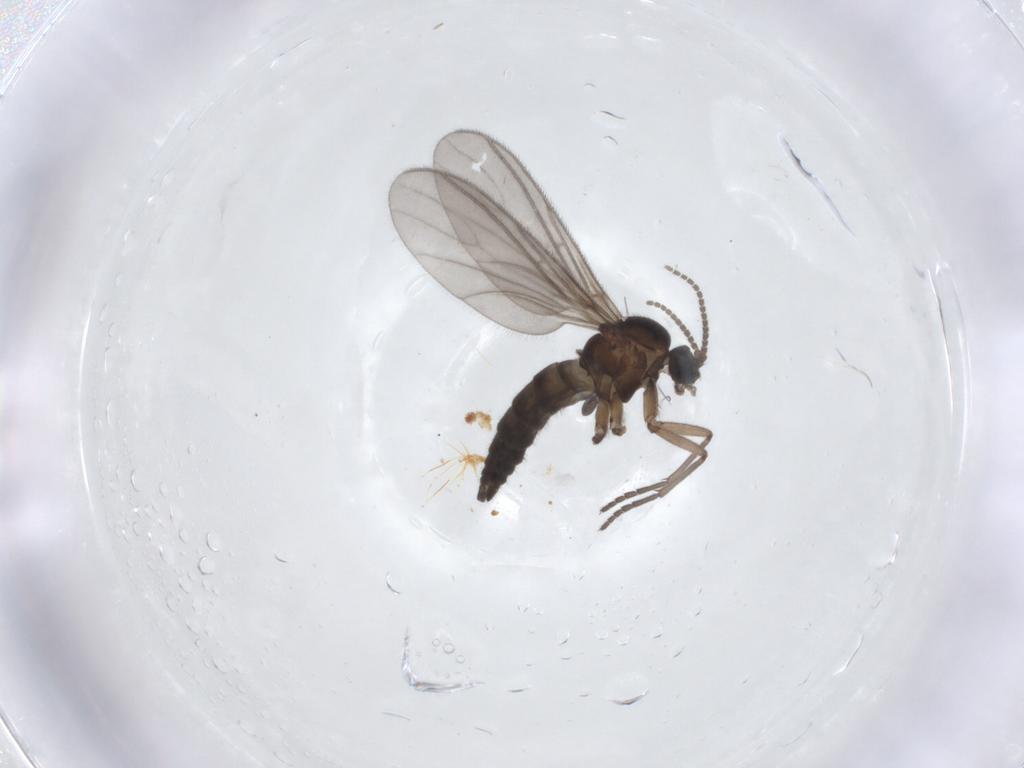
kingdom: Animalia
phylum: Arthropoda
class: Insecta
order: Diptera
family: Sciaridae
